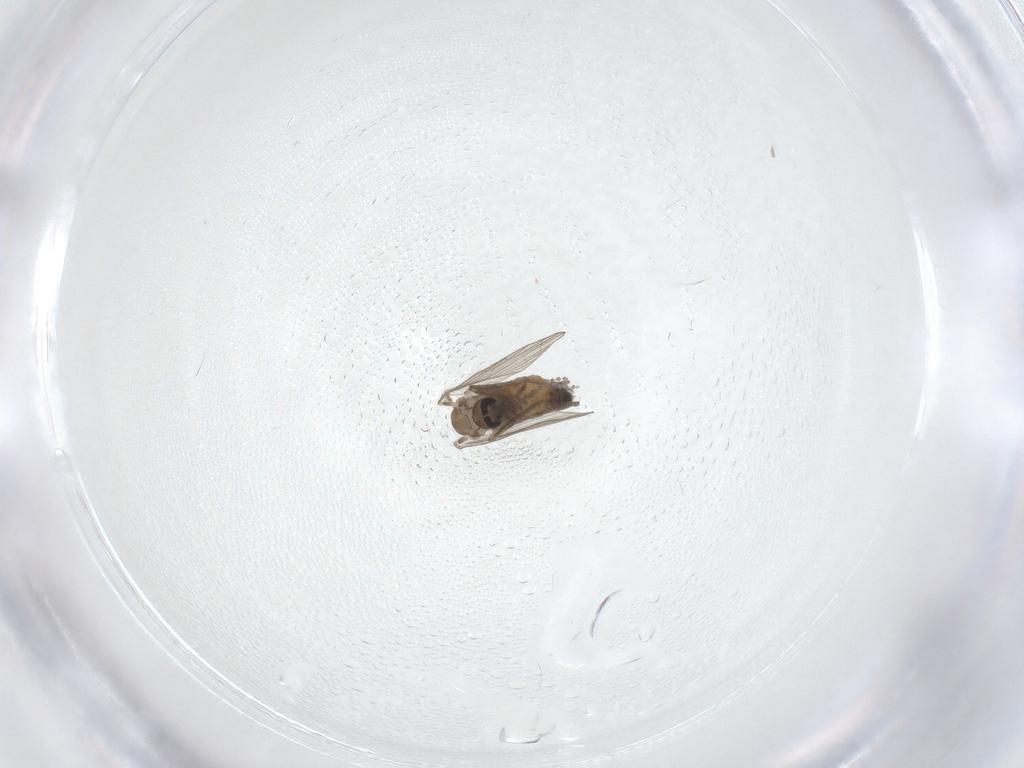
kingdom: Animalia
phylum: Arthropoda
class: Insecta
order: Diptera
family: Psychodidae
